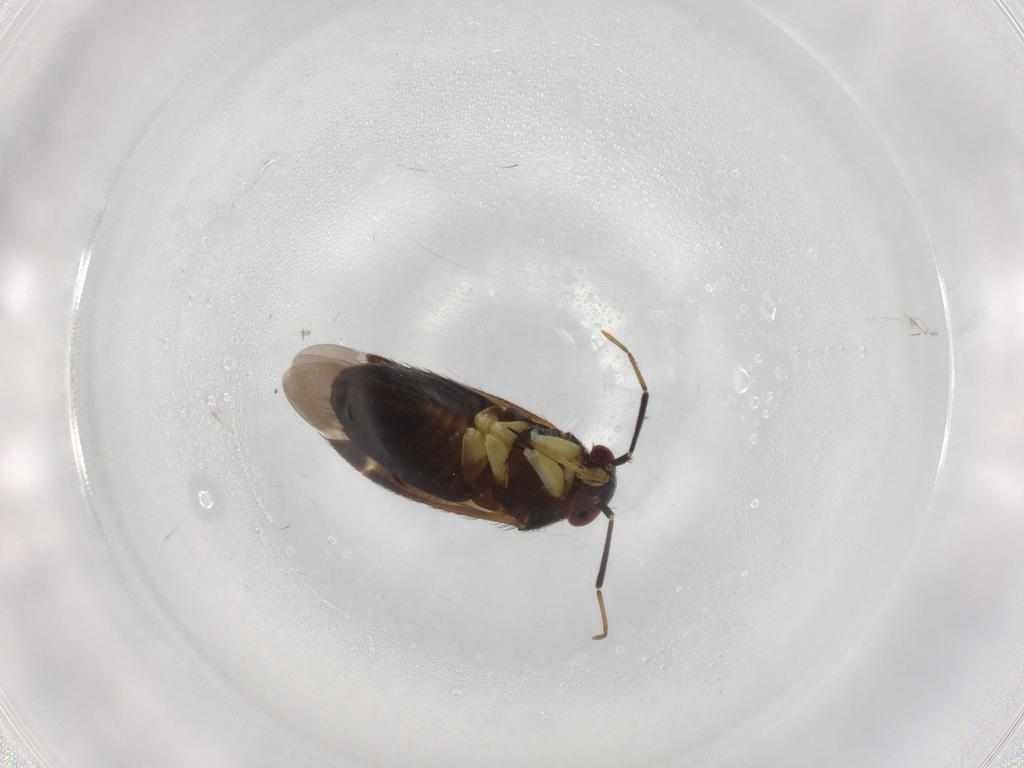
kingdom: Animalia
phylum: Arthropoda
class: Insecta
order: Hemiptera
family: Miridae
